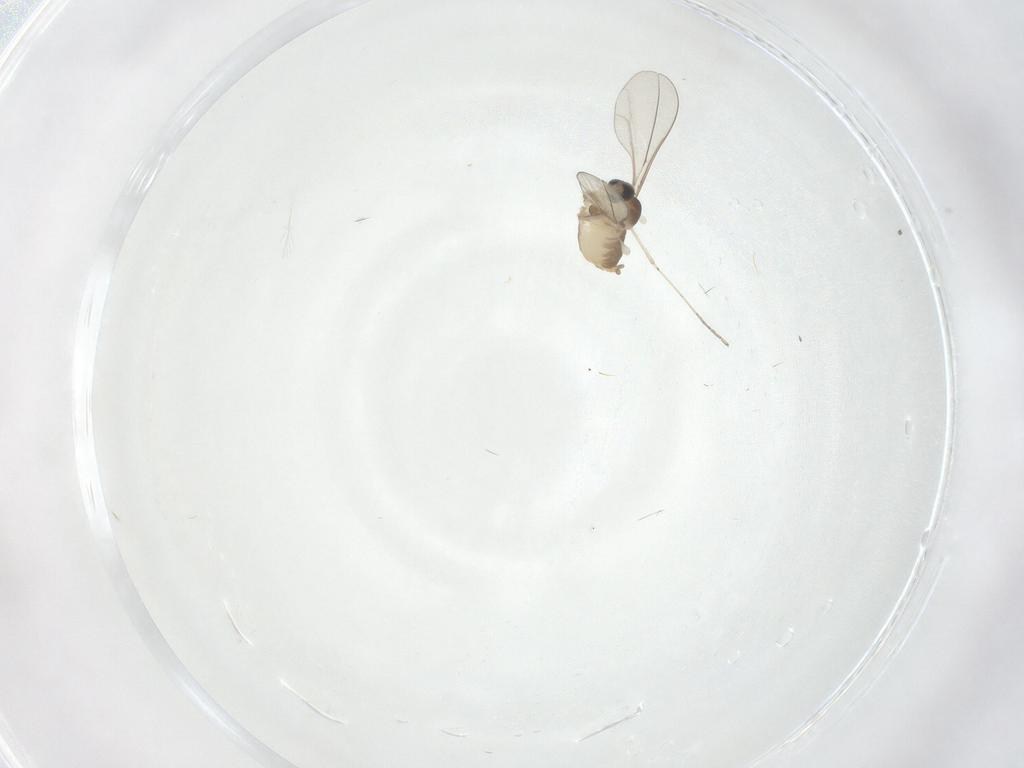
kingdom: Animalia
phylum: Arthropoda
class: Insecta
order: Diptera
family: Cecidomyiidae
